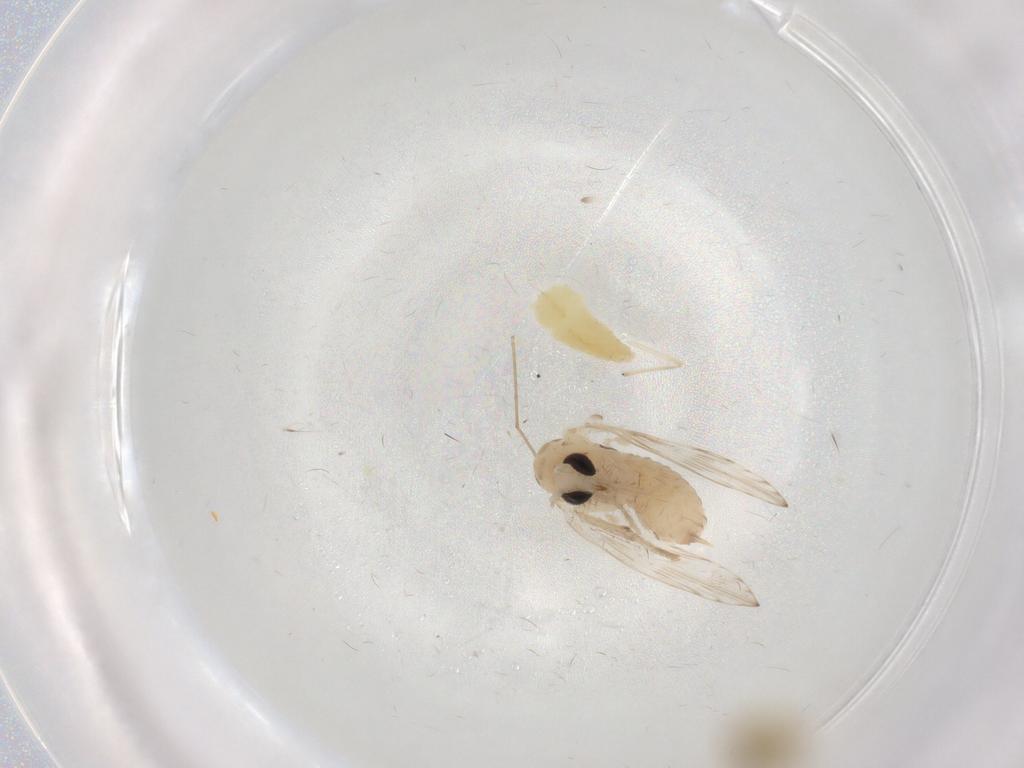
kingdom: Animalia
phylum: Arthropoda
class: Insecta
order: Diptera
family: Psychodidae
